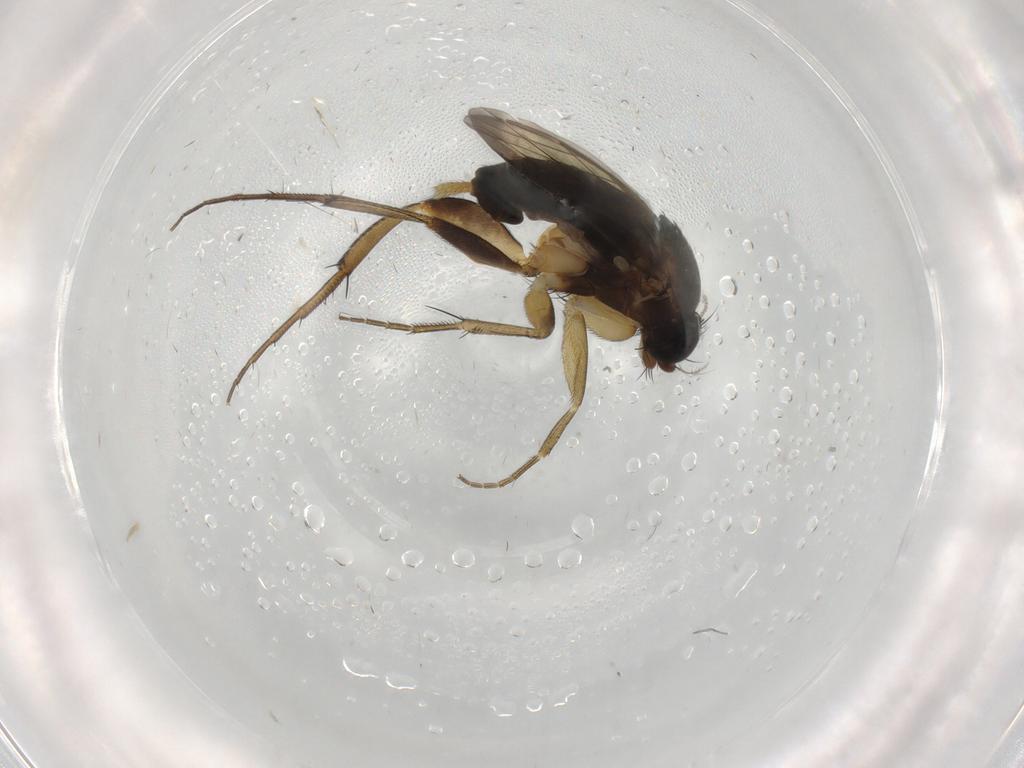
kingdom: Animalia
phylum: Arthropoda
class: Insecta
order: Diptera
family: Phoridae
